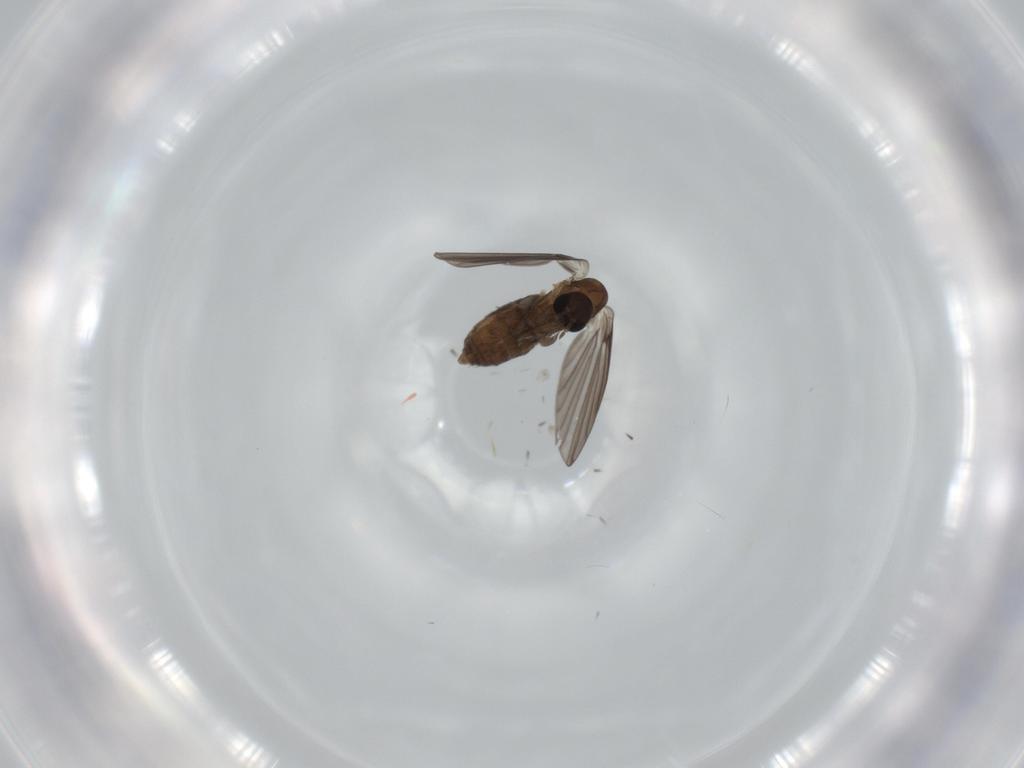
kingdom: Animalia
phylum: Arthropoda
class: Insecta
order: Diptera
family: Psychodidae
